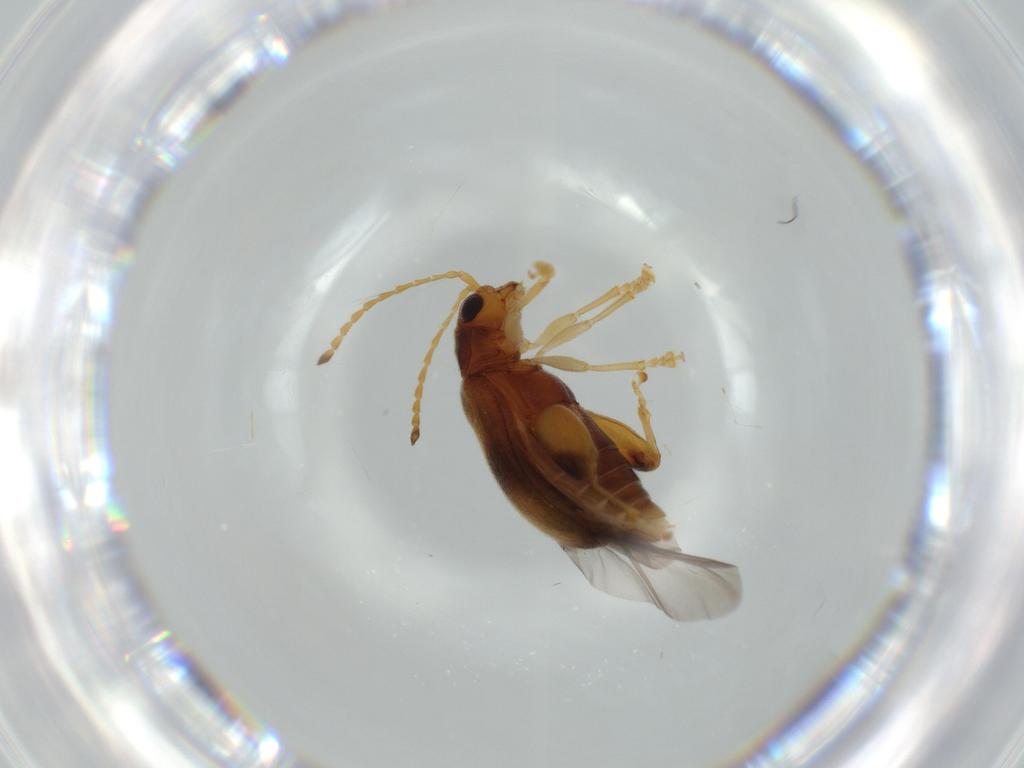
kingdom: Animalia
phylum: Arthropoda
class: Insecta
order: Coleoptera
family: Chrysomelidae
